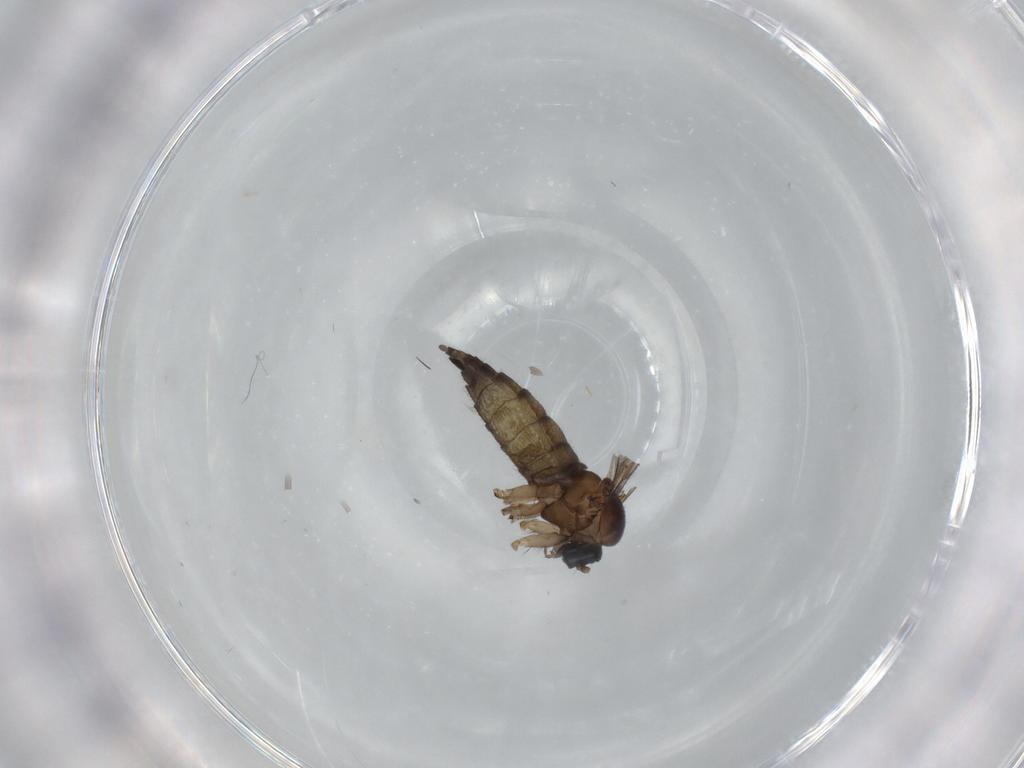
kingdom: Animalia
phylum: Arthropoda
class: Insecta
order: Diptera
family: Sciaridae
